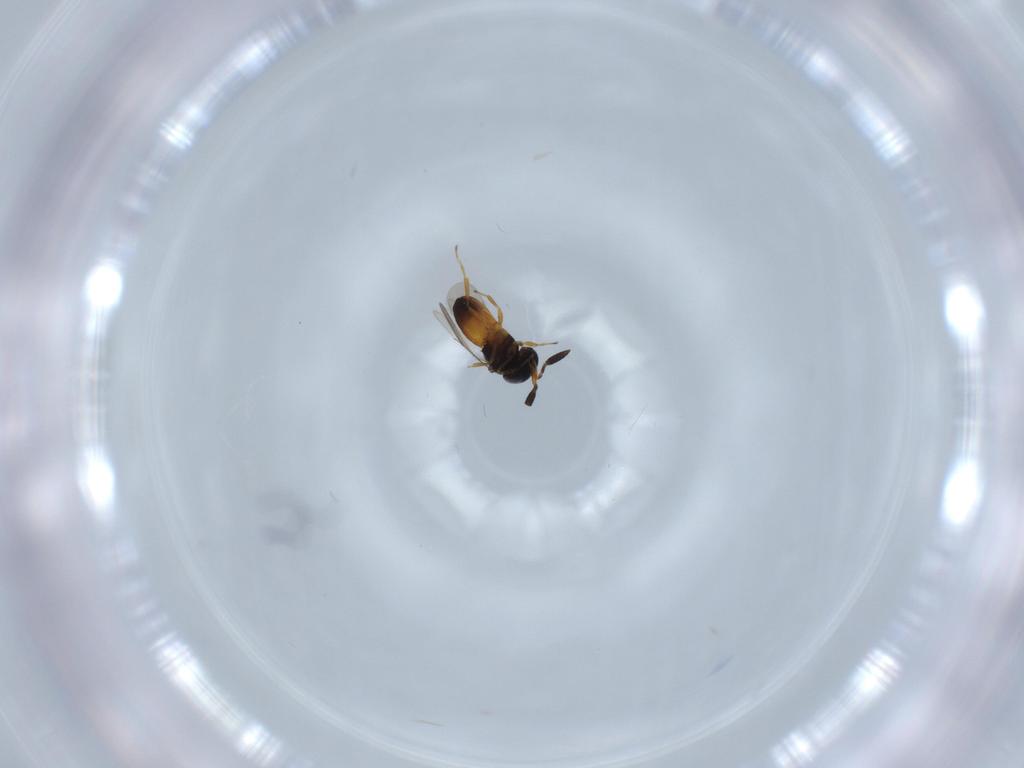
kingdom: Animalia
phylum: Arthropoda
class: Insecta
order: Hymenoptera
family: Scelionidae
